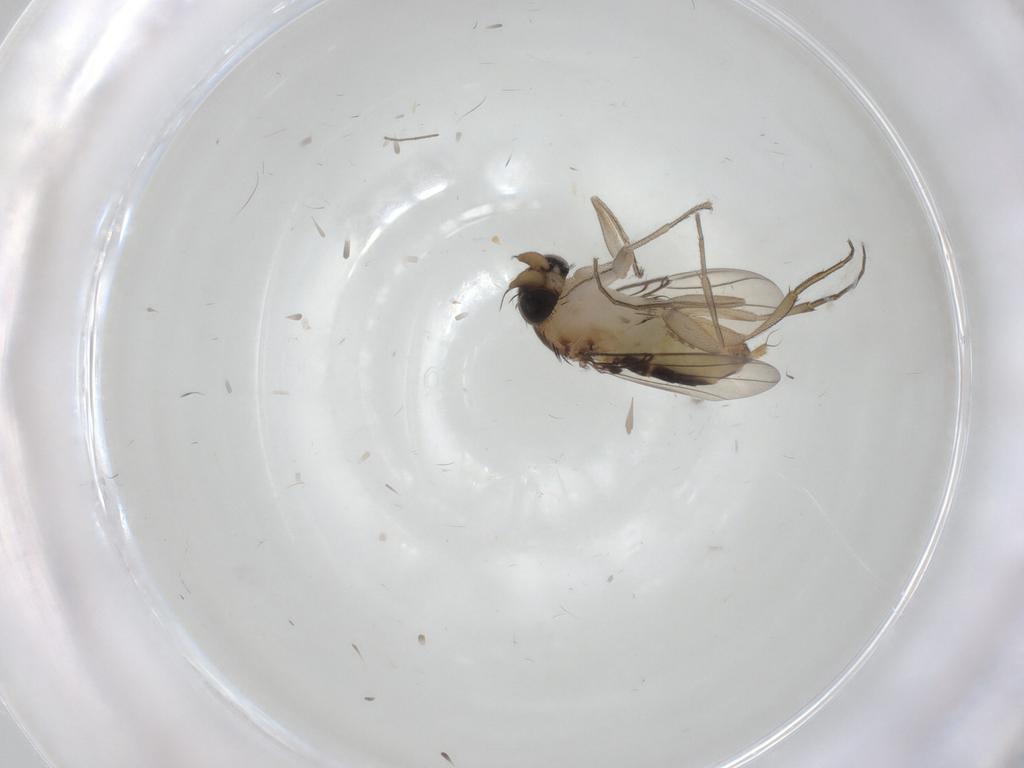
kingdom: Animalia
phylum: Arthropoda
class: Insecta
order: Diptera
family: Phoridae
